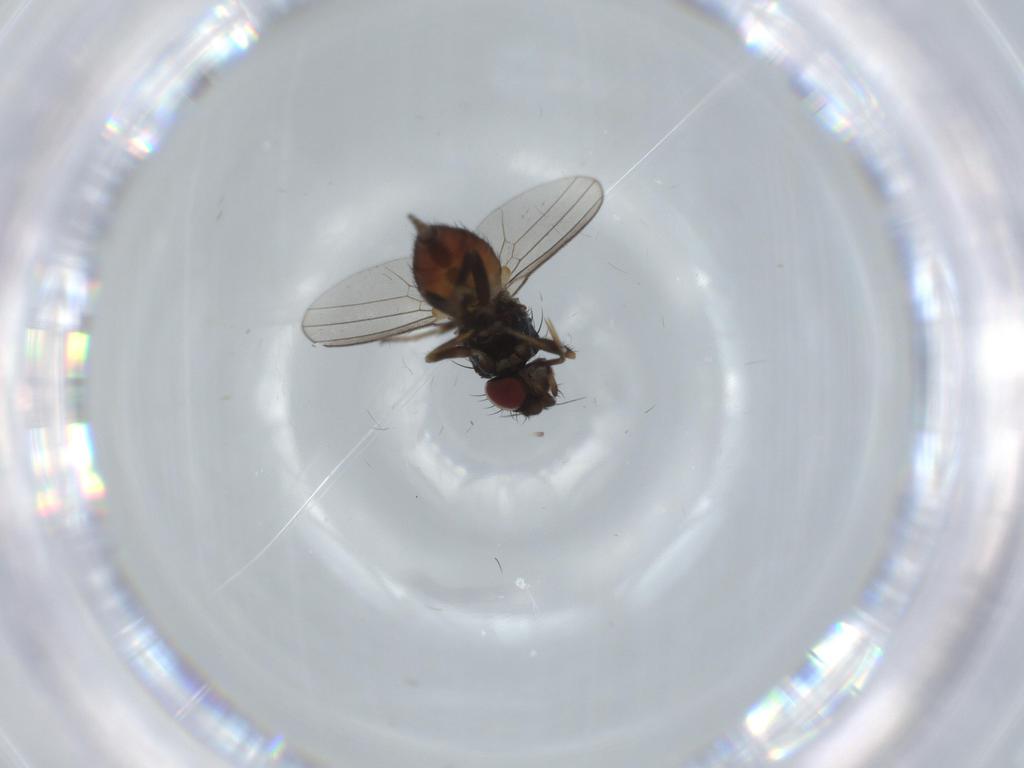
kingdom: Animalia
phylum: Arthropoda
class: Insecta
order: Diptera
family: Milichiidae
